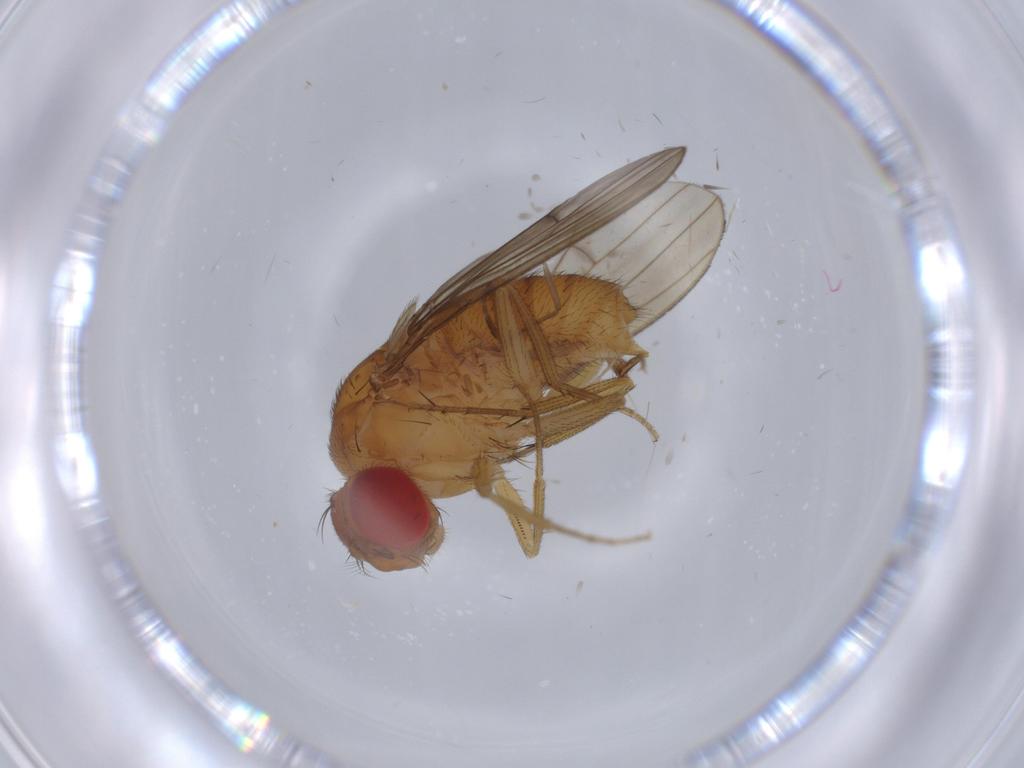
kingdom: Animalia
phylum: Arthropoda
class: Insecta
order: Diptera
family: Drosophilidae
